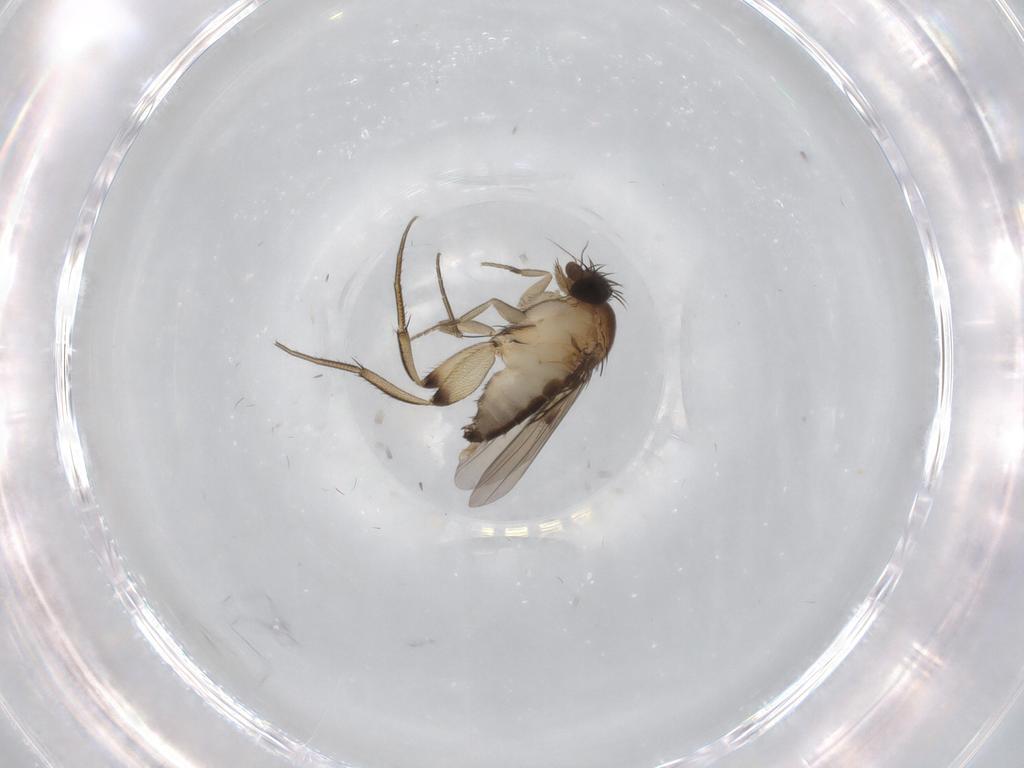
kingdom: Animalia
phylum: Arthropoda
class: Insecta
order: Diptera
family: Phoridae
